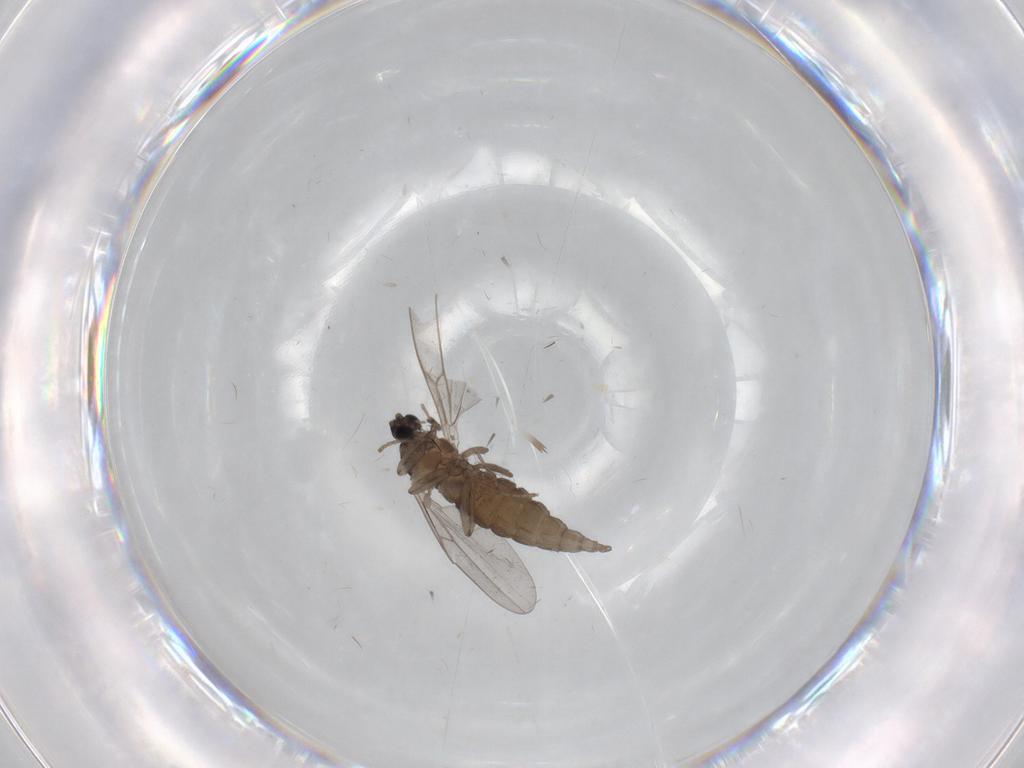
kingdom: Animalia
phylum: Arthropoda
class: Insecta
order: Diptera
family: Cecidomyiidae
